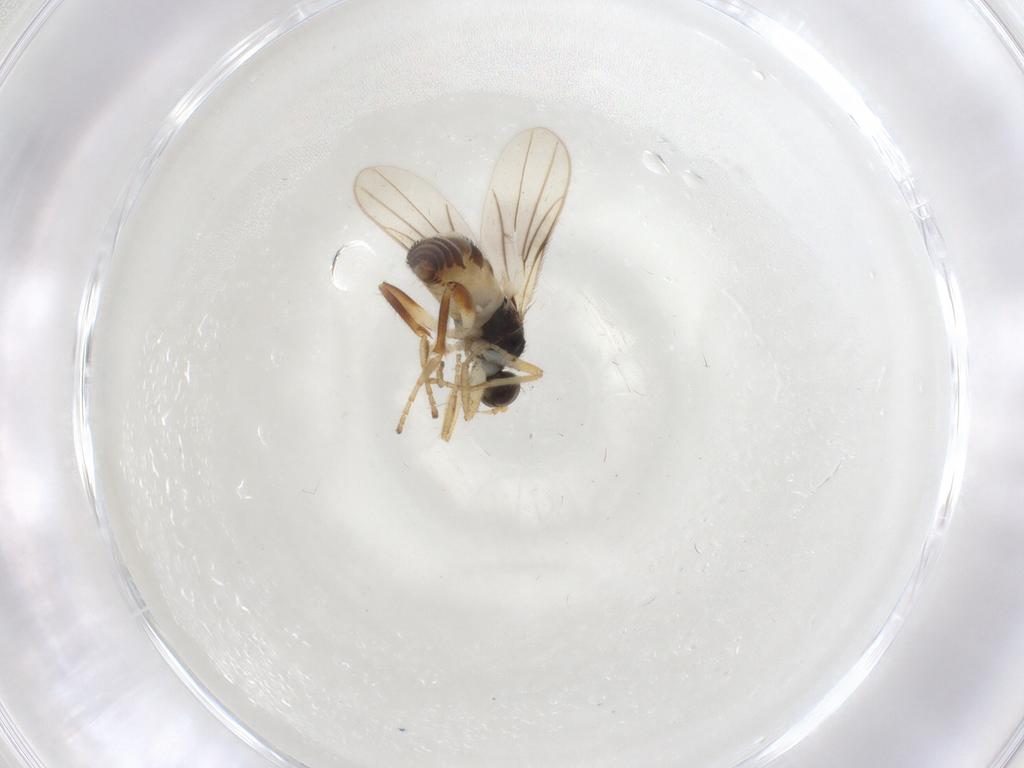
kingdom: Animalia
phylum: Arthropoda
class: Insecta
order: Diptera
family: Hybotidae
